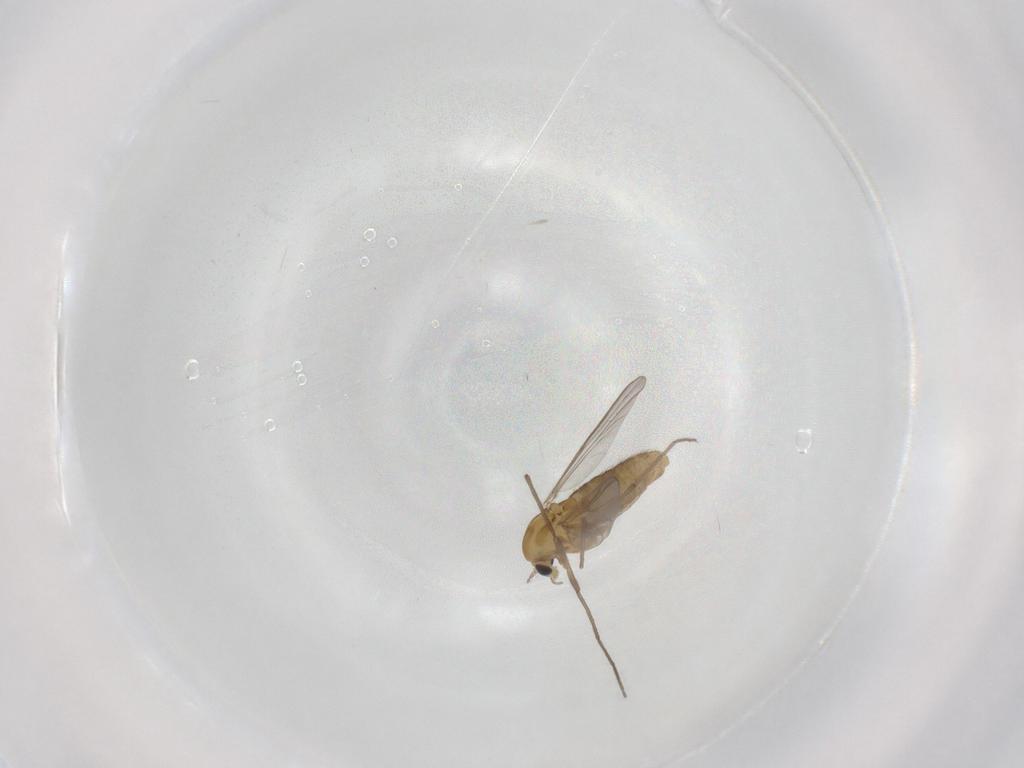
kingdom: Animalia
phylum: Arthropoda
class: Insecta
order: Diptera
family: Chironomidae
